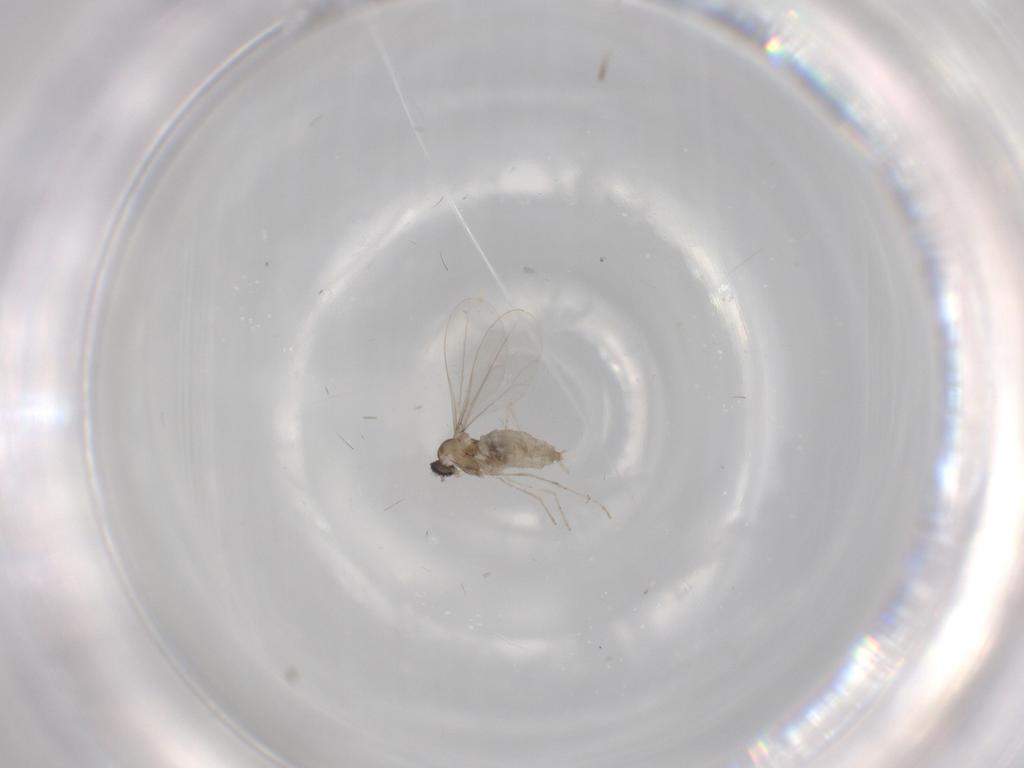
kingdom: Animalia
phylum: Arthropoda
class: Insecta
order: Diptera
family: Cecidomyiidae
